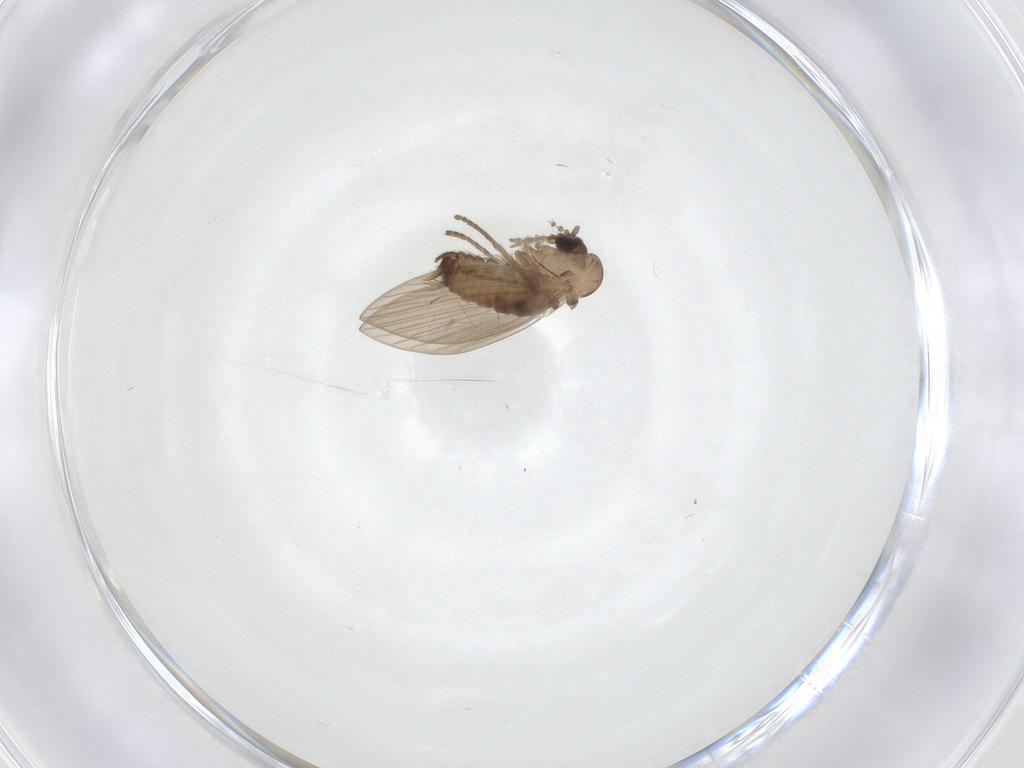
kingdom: Animalia
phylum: Arthropoda
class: Insecta
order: Diptera
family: Psychodidae
